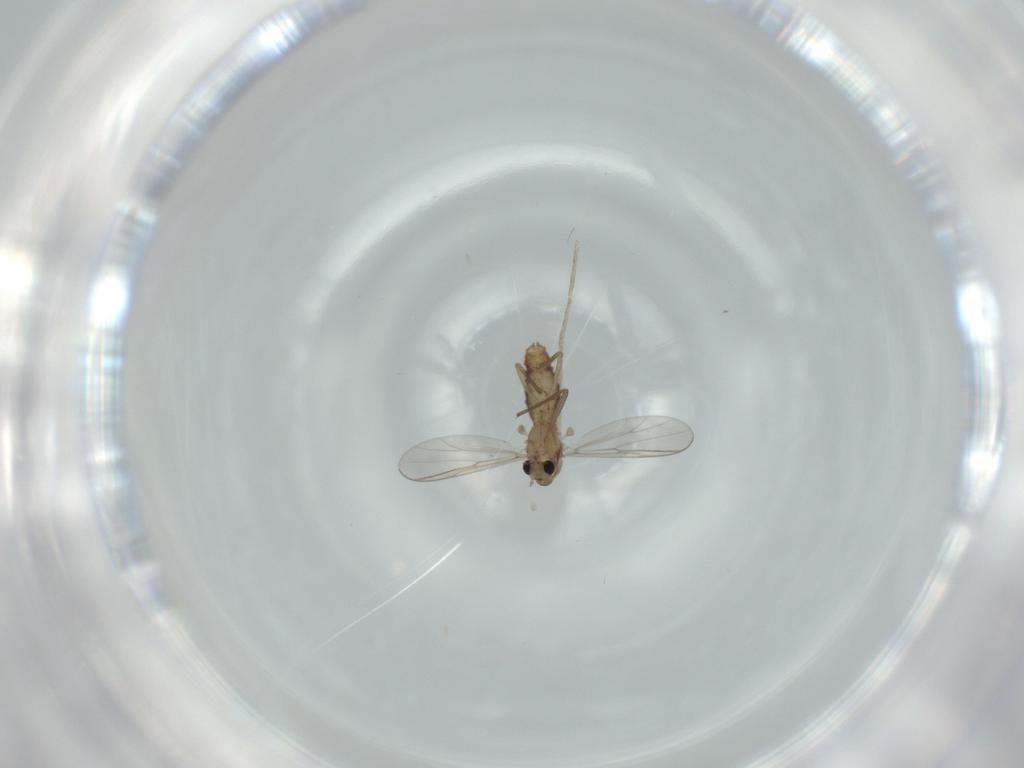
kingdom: Animalia
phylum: Arthropoda
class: Insecta
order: Diptera
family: Chironomidae
